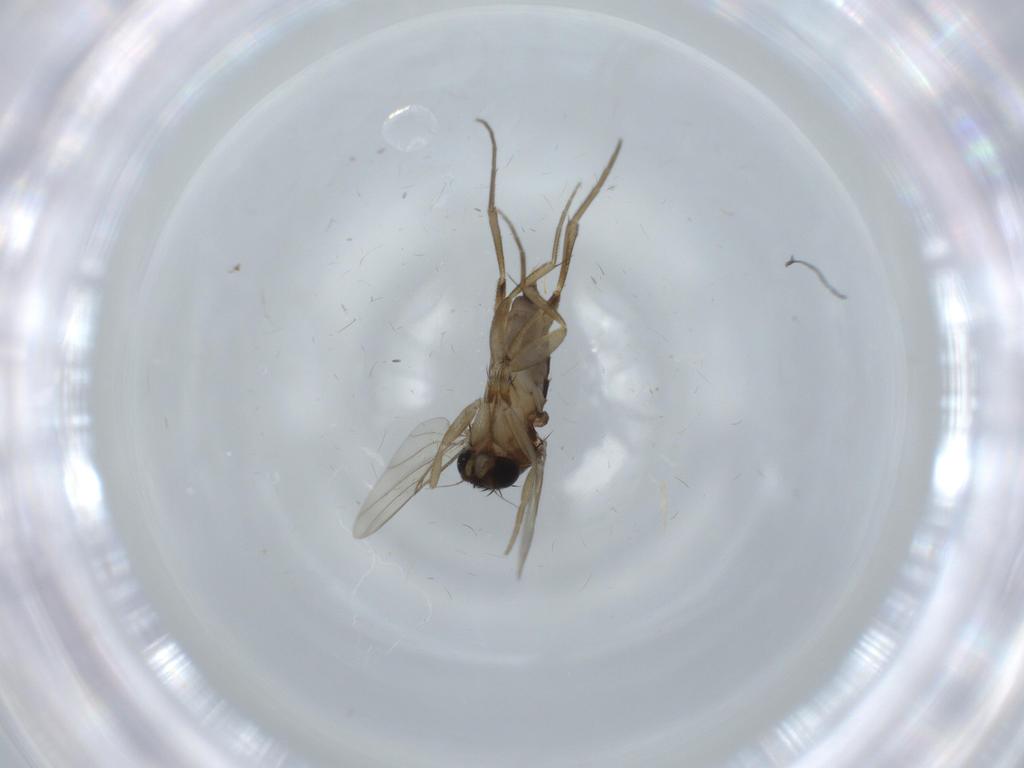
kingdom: Animalia
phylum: Arthropoda
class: Insecta
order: Diptera
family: Phoridae
